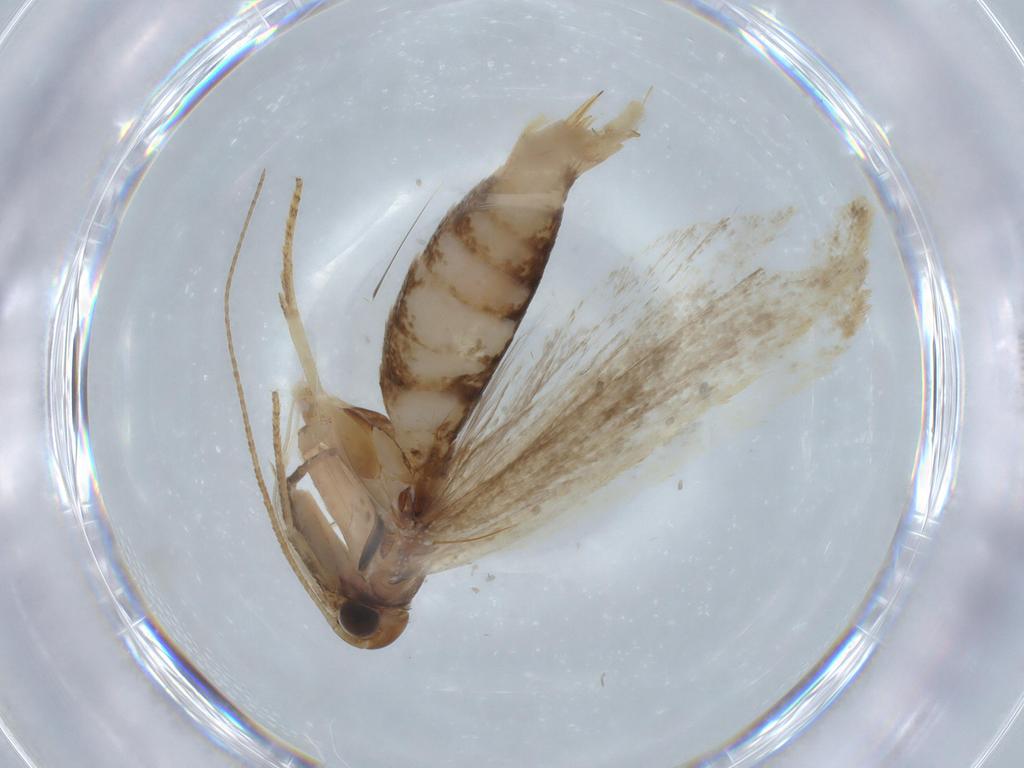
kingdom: Animalia
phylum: Arthropoda
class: Insecta
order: Lepidoptera
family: Gelechiidae
